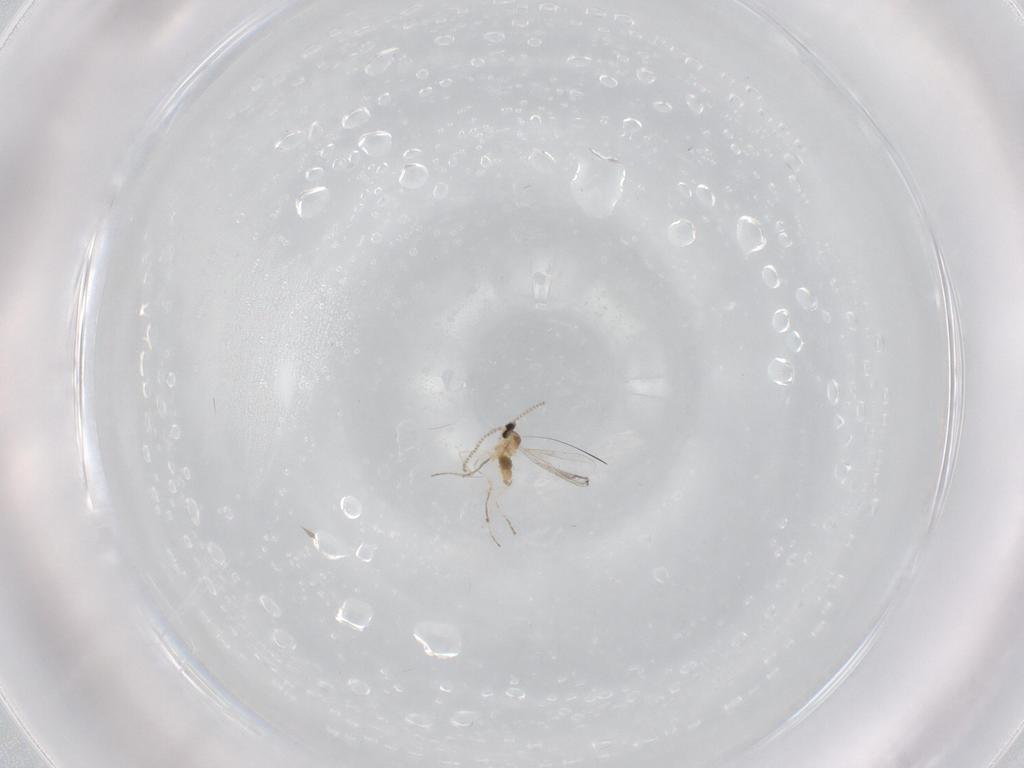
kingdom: Animalia
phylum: Arthropoda
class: Insecta
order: Diptera
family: Cecidomyiidae
